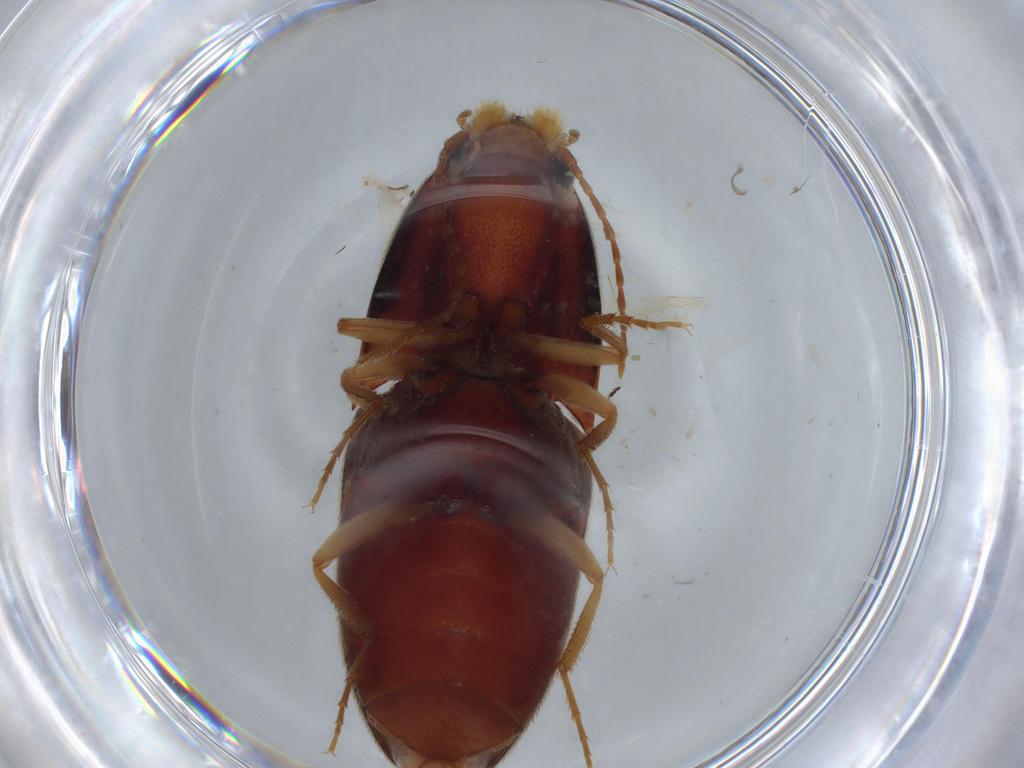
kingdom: Animalia
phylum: Arthropoda
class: Insecta
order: Coleoptera
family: Elateridae
